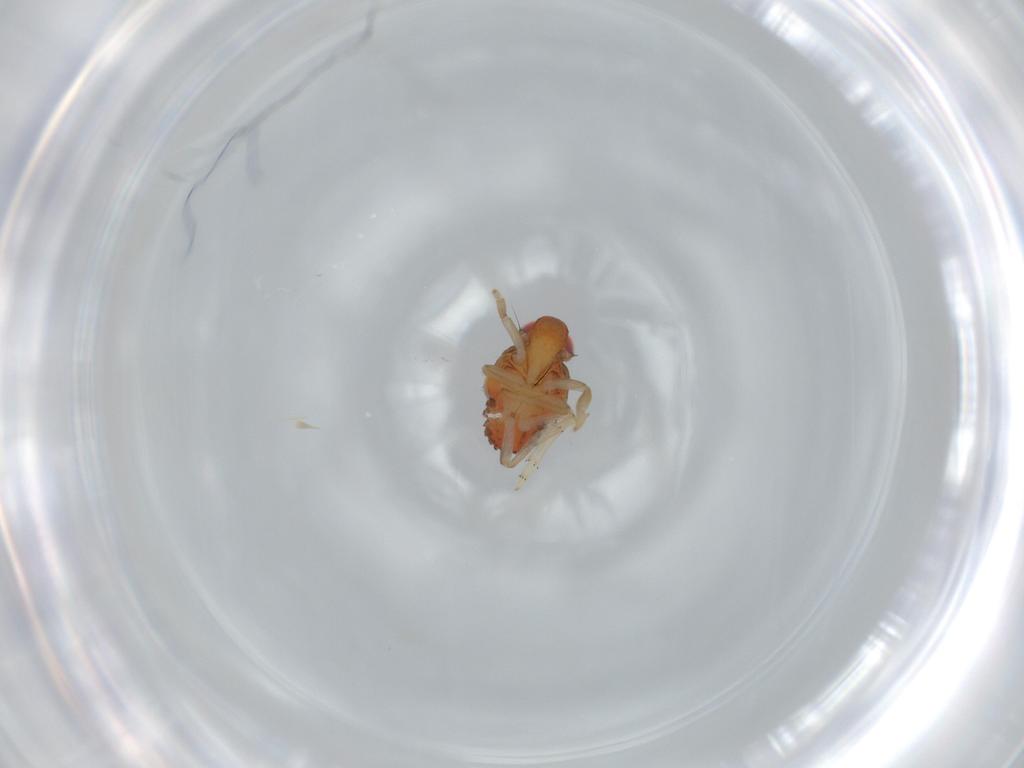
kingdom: Animalia
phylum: Arthropoda
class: Insecta
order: Hemiptera
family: Issidae
